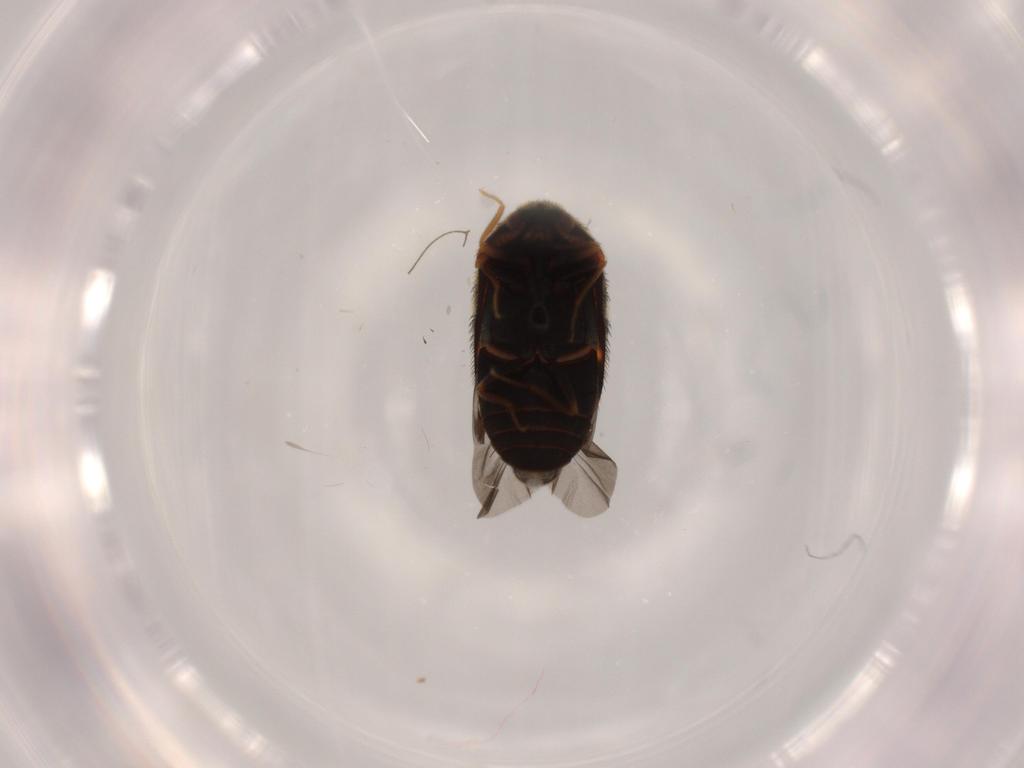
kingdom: Animalia
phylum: Arthropoda
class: Insecta
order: Coleoptera
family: Dermestidae
